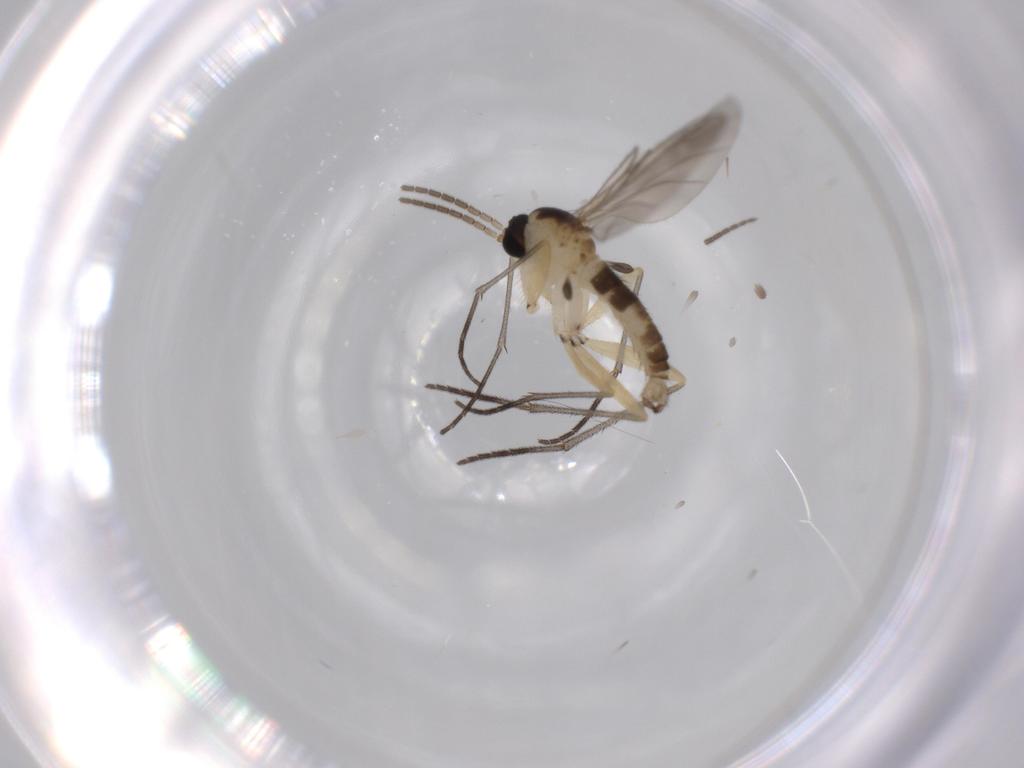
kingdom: Animalia
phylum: Arthropoda
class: Insecta
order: Diptera
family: Sciaridae
